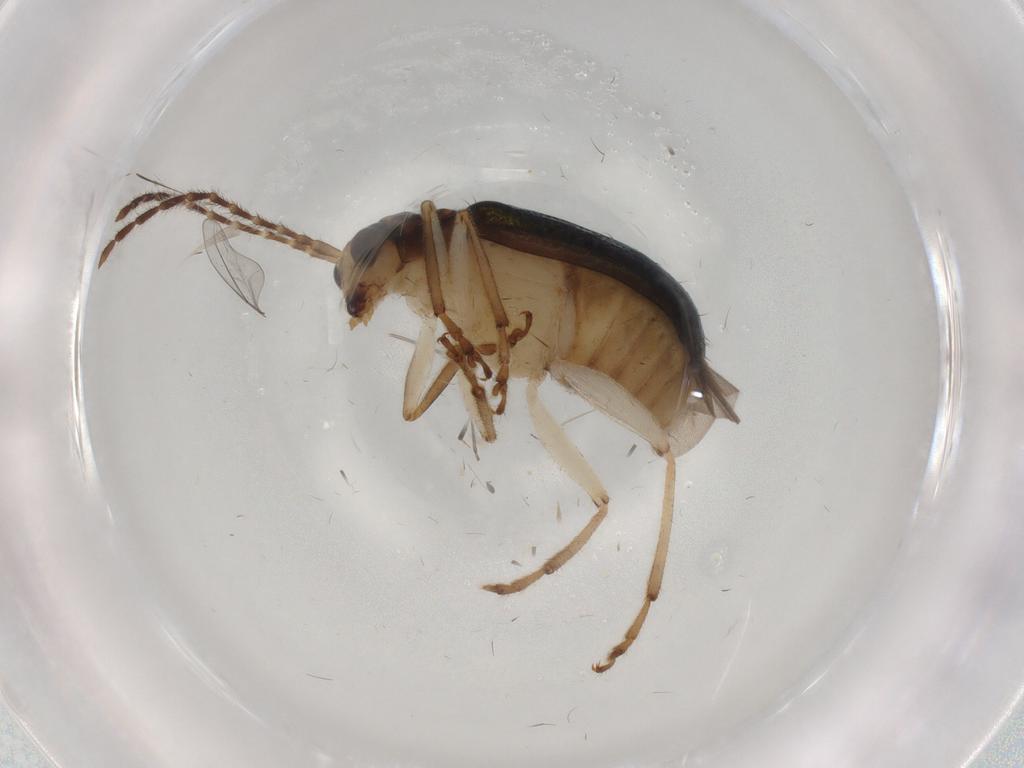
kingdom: Animalia
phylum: Arthropoda
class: Insecta
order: Coleoptera
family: Chrysomelidae
